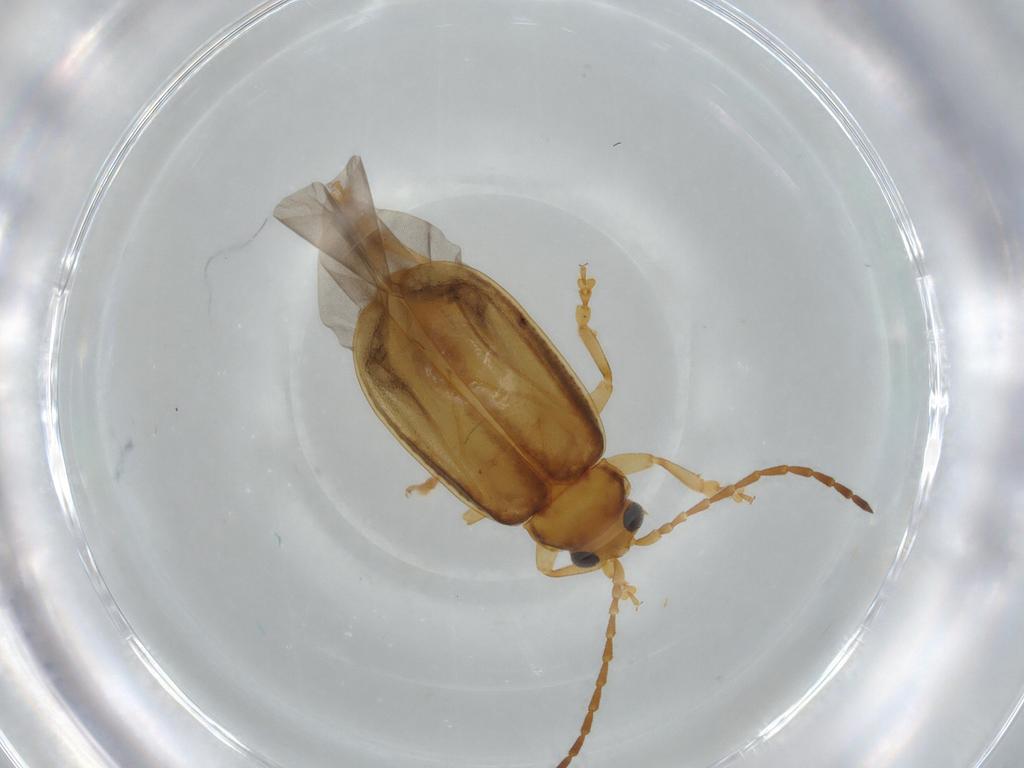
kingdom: Animalia
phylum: Arthropoda
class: Insecta
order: Coleoptera
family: Chrysomelidae
